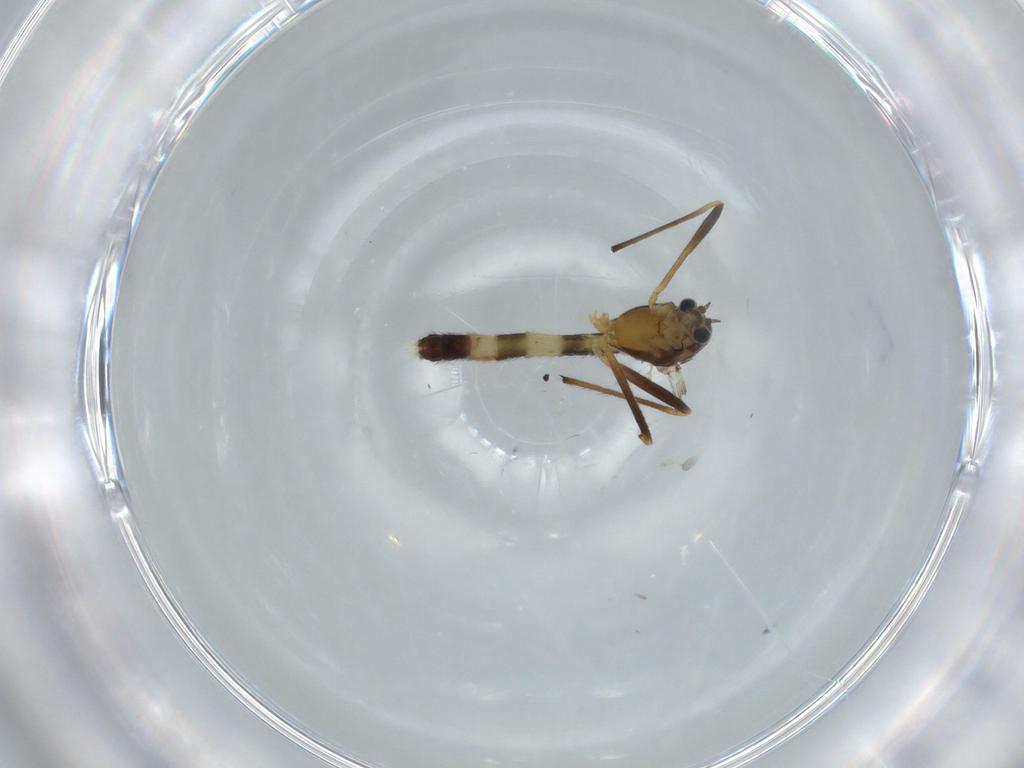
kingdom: Animalia
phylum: Arthropoda
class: Insecta
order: Diptera
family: Chironomidae
